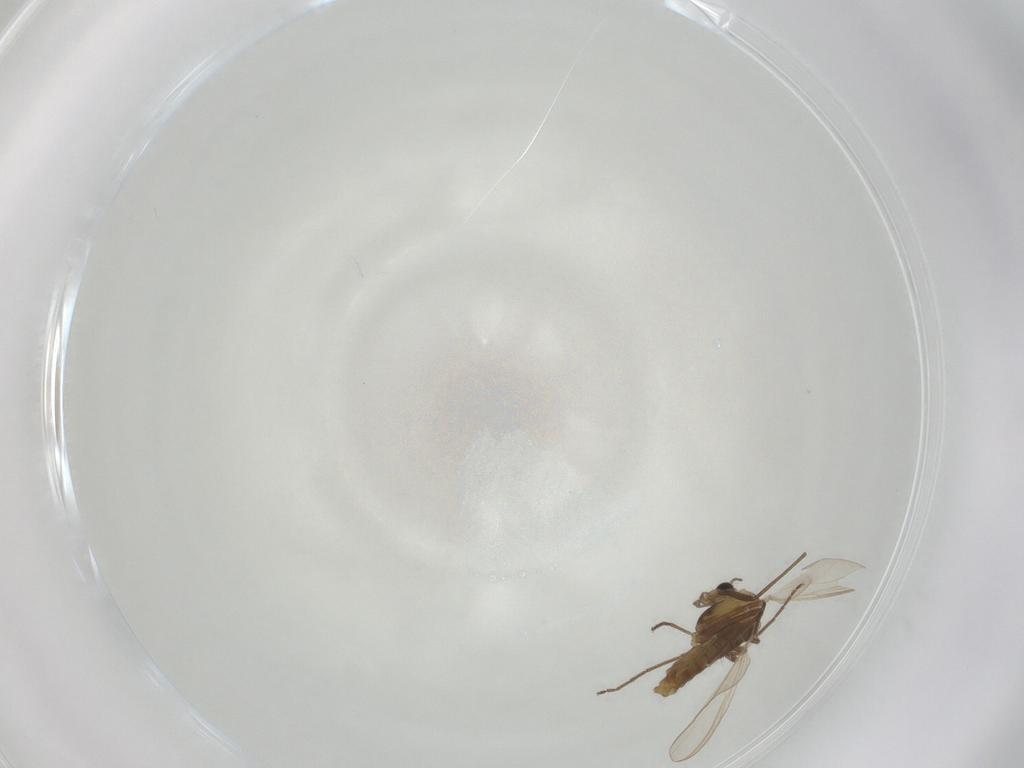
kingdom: Animalia
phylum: Arthropoda
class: Insecta
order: Diptera
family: Chironomidae
